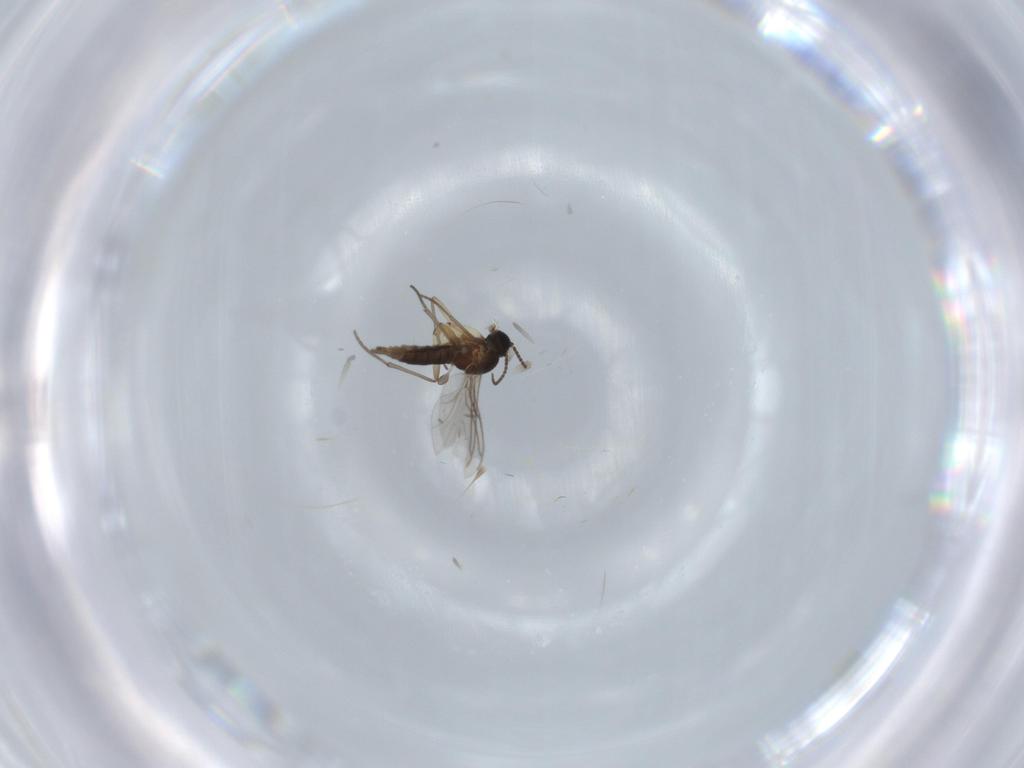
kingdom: Animalia
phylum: Arthropoda
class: Insecta
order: Diptera
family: Sciaridae
